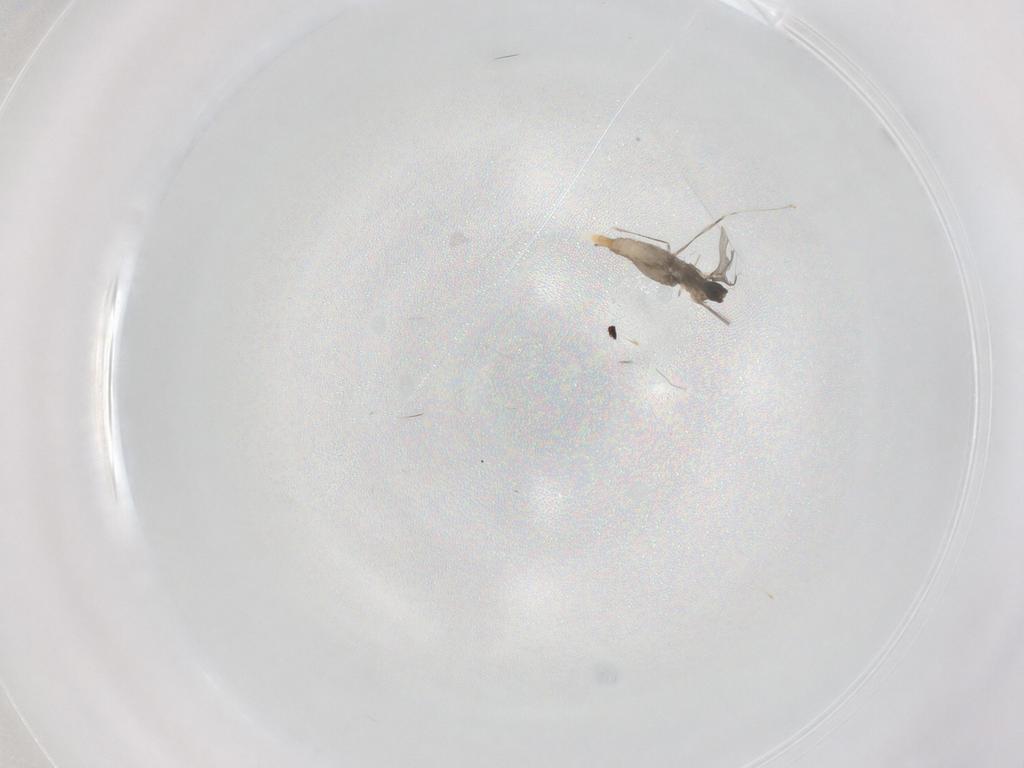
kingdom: Animalia
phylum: Arthropoda
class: Insecta
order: Diptera
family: Cecidomyiidae
